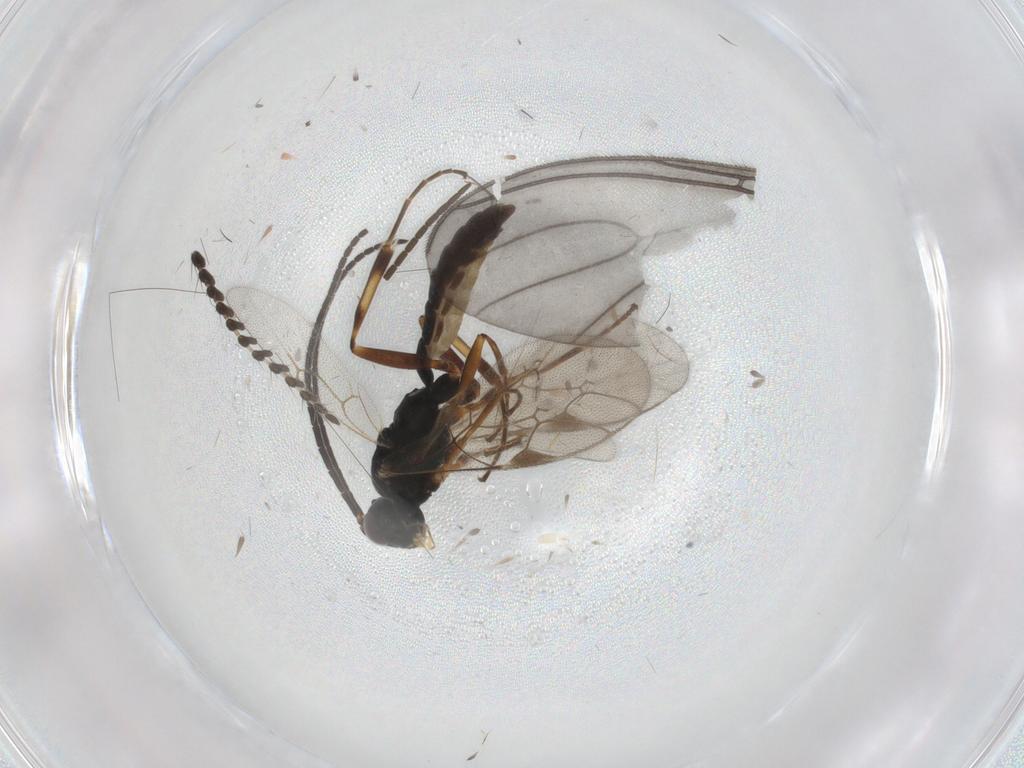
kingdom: Animalia
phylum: Arthropoda
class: Insecta
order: Hymenoptera
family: Ichneumonidae
